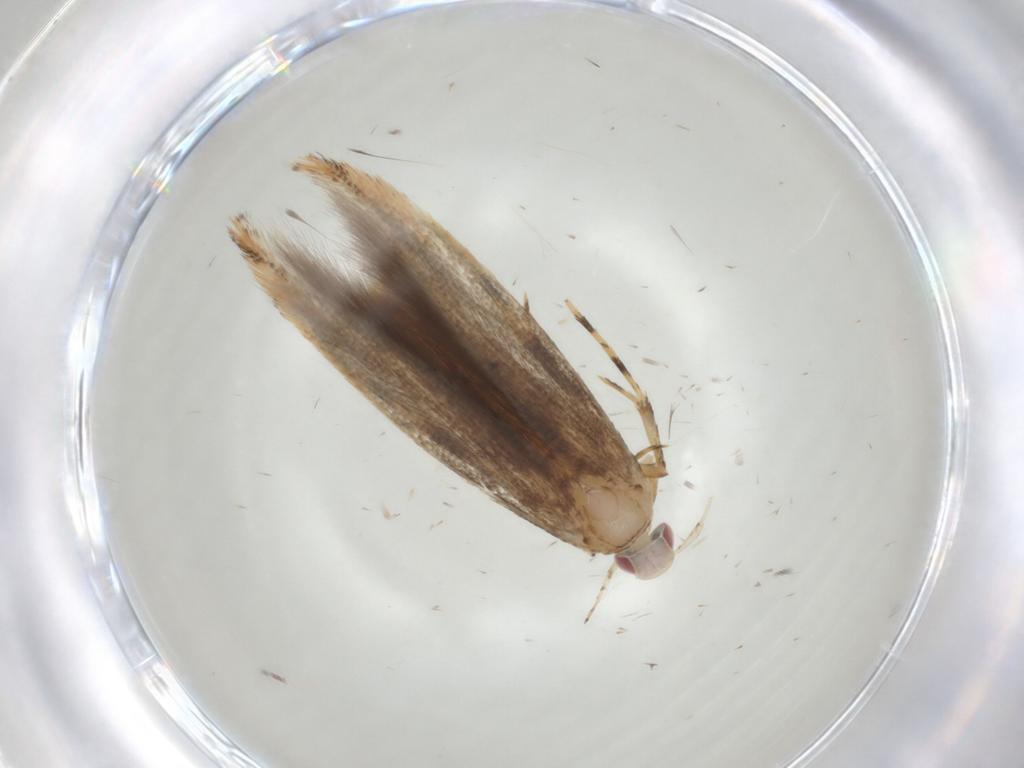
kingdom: Animalia
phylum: Arthropoda
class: Insecta
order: Lepidoptera
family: Cosmopterigidae
